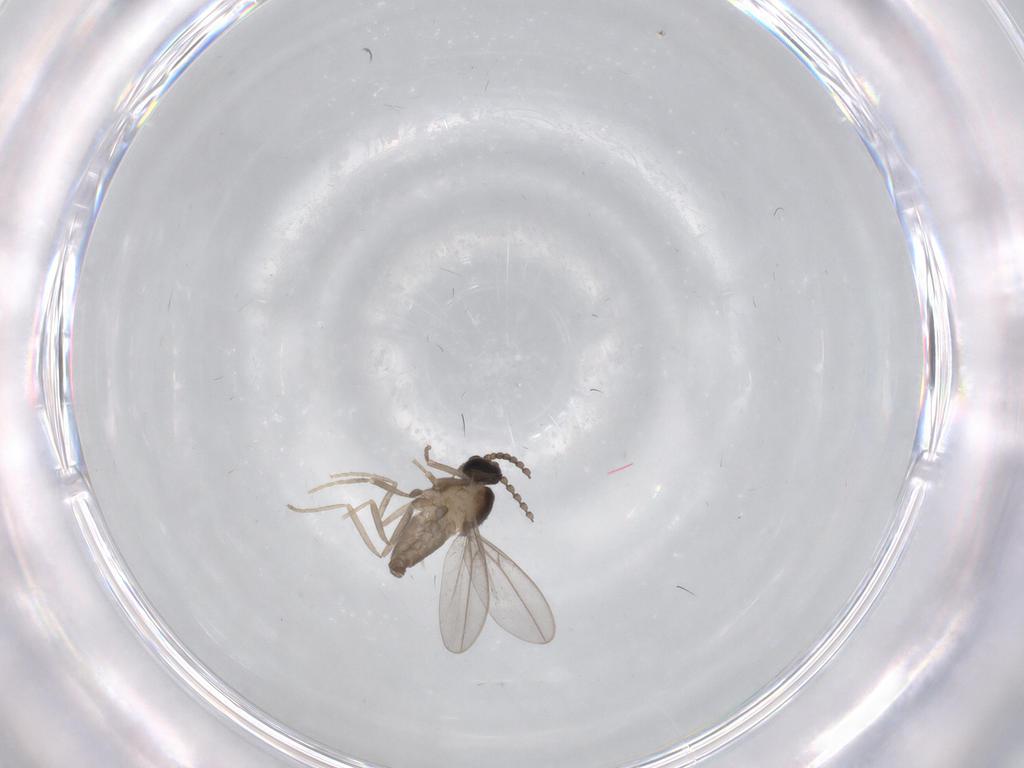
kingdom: Animalia
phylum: Arthropoda
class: Insecta
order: Diptera
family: Cecidomyiidae
